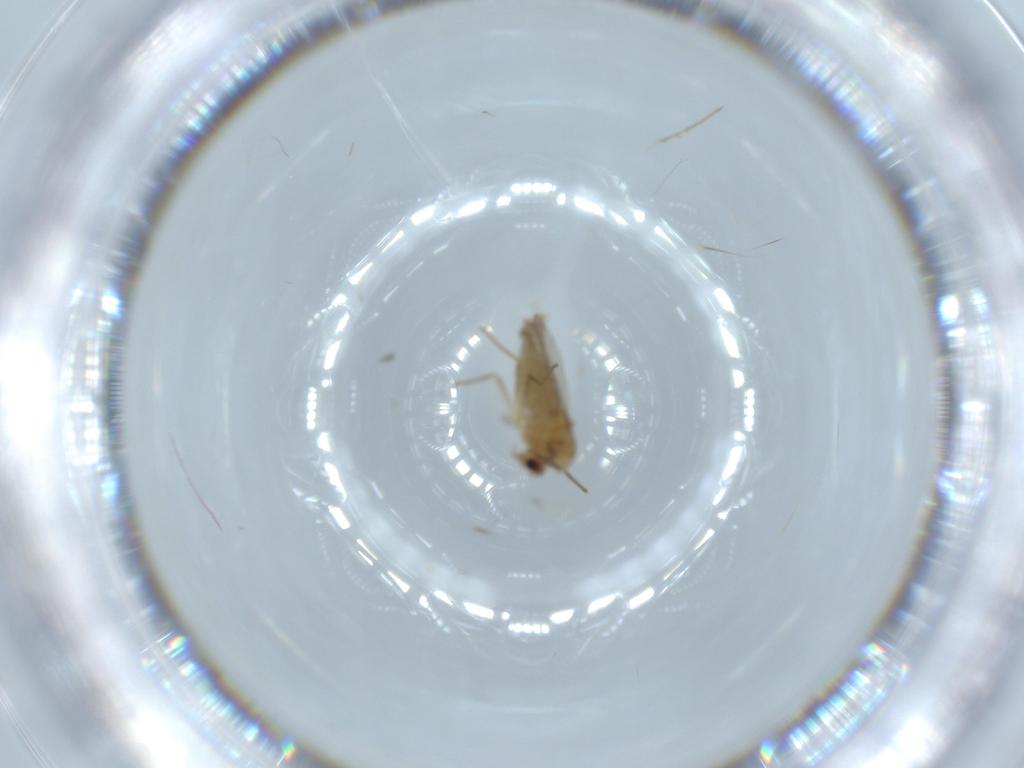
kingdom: Animalia
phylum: Arthropoda
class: Insecta
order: Diptera
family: Chironomidae
